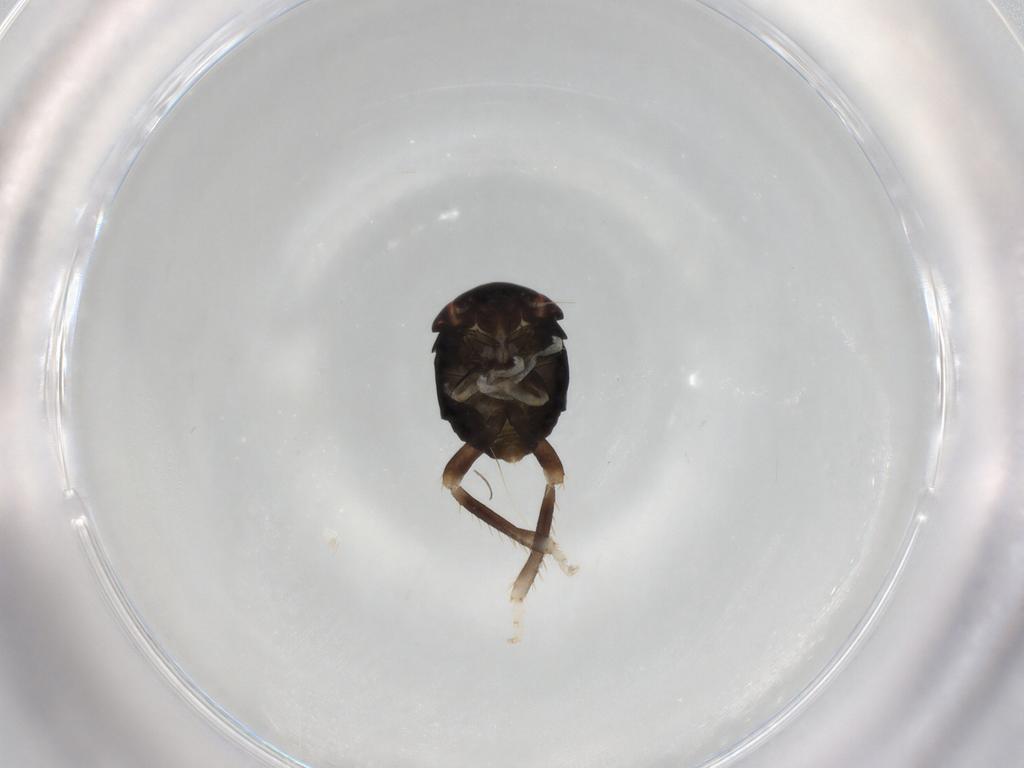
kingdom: Animalia
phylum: Arthropoda
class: Insecta
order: Hemiptera
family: Cicadellidae
